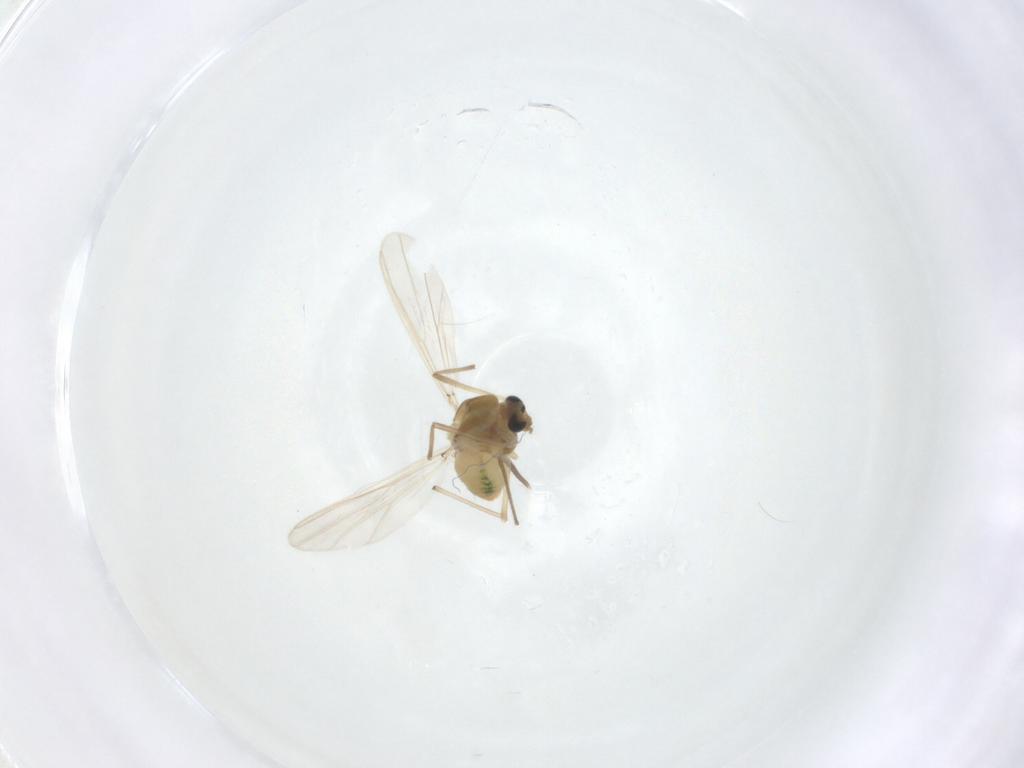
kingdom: Animalia
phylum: Arthropoda
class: Insecta
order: Diptera
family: Chironomidae
